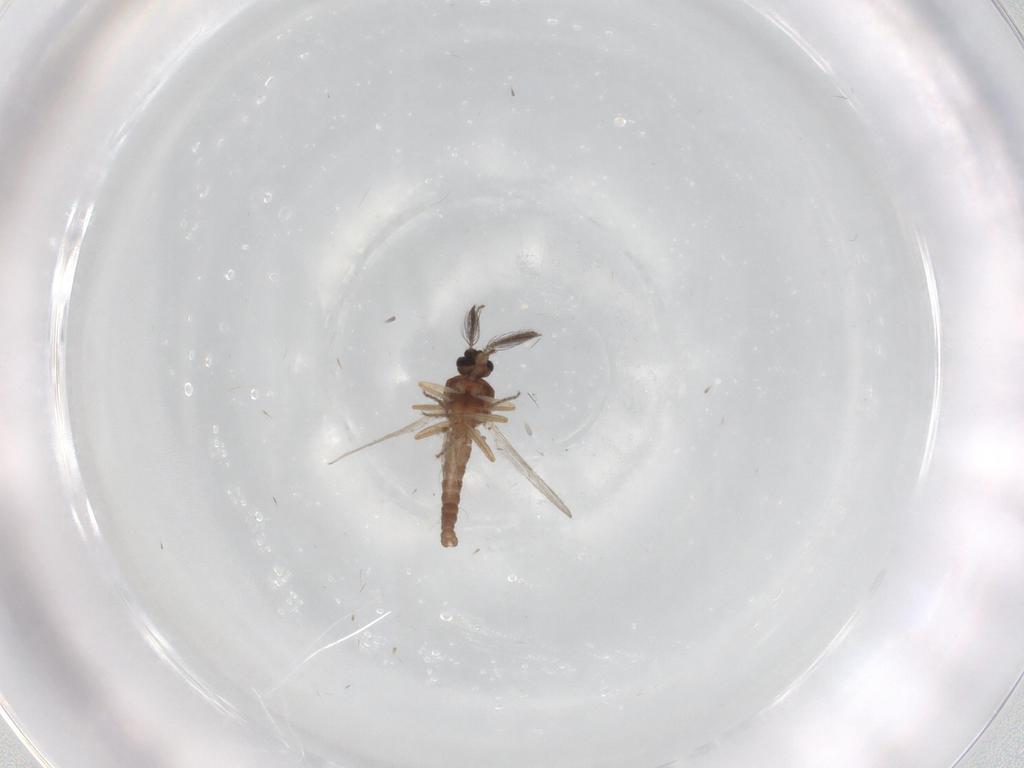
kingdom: Animalia
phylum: Arthropoda
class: Insecta
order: Diptera
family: Ceratopogonidae
